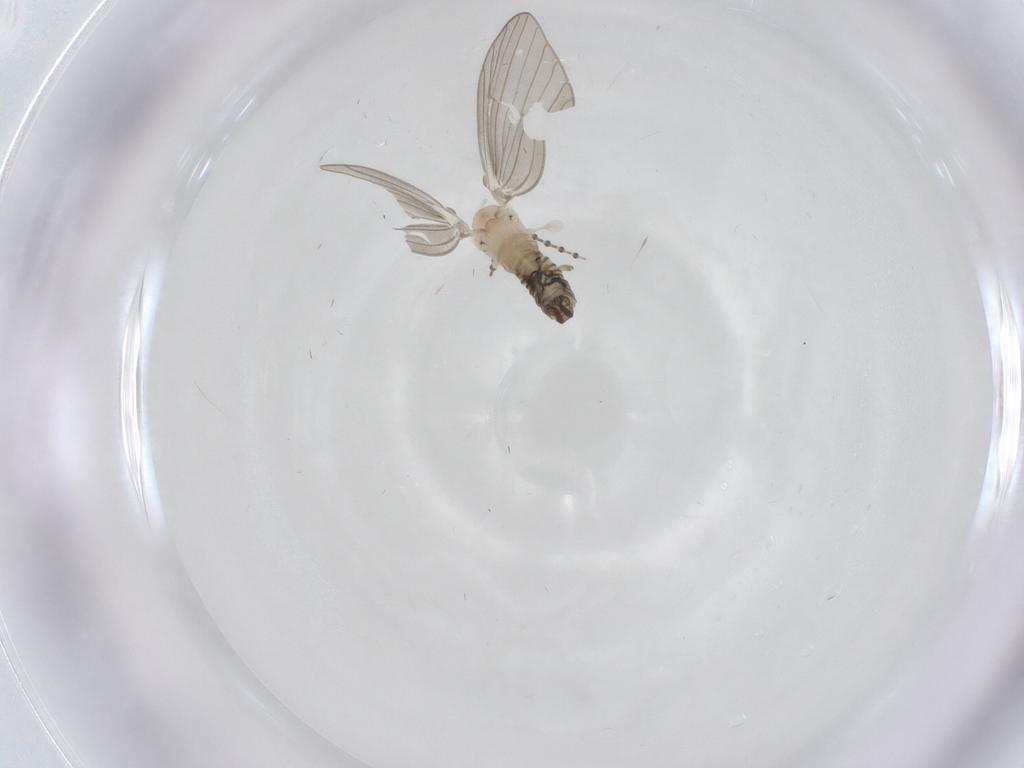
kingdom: Animalia
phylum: Arthropoda
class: Insecta
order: Diptera
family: Psychodidae
